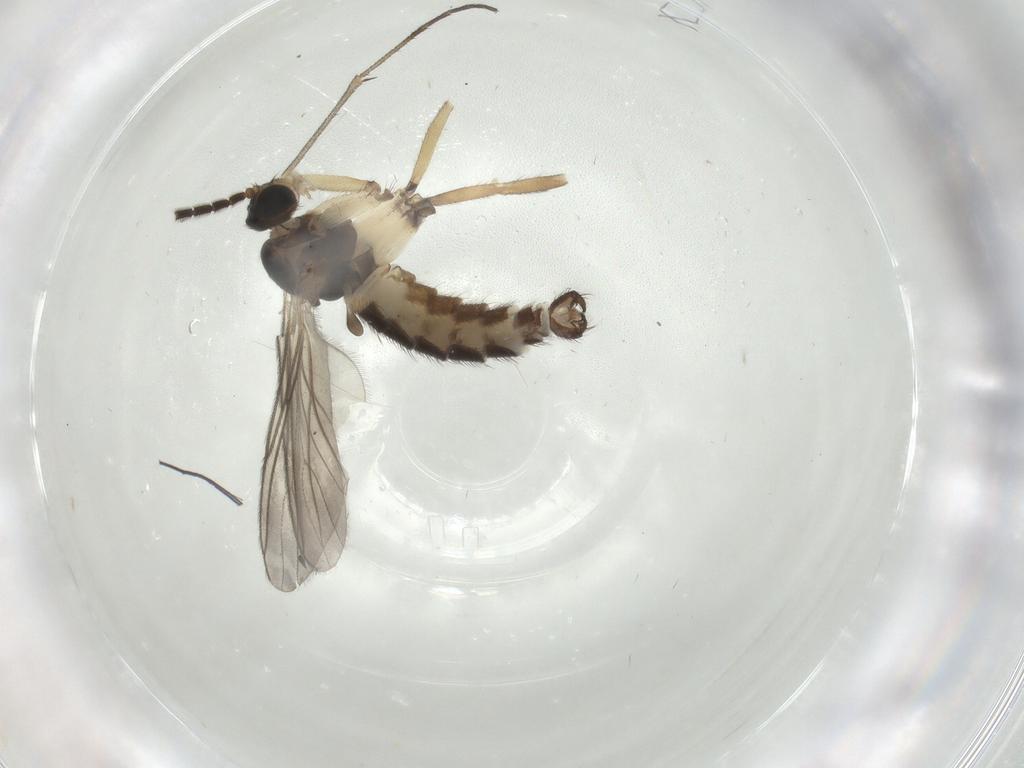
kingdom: Animalia
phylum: Arthropoda
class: Insecta
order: Diptera
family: Sciaridae
